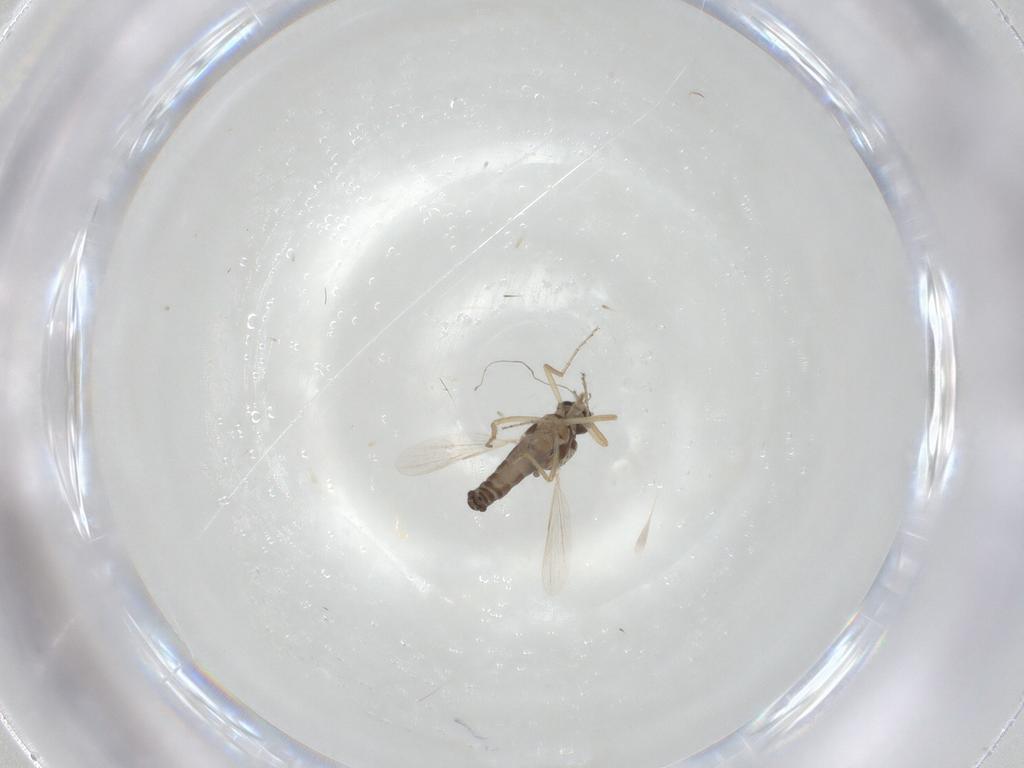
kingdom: Animalia
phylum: Arthropoda
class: Insecta
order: Diptera
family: Ceratopogonidae
